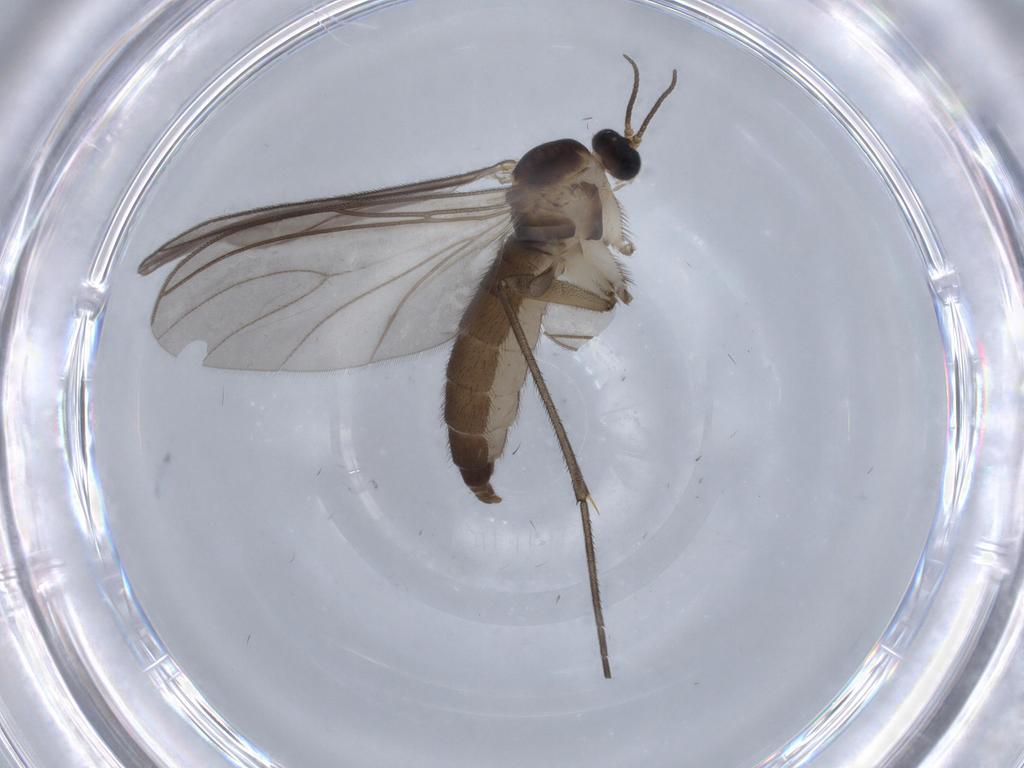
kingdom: Animalia
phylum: Arthropoda
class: Insecta
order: Diptera
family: Sciaridae
